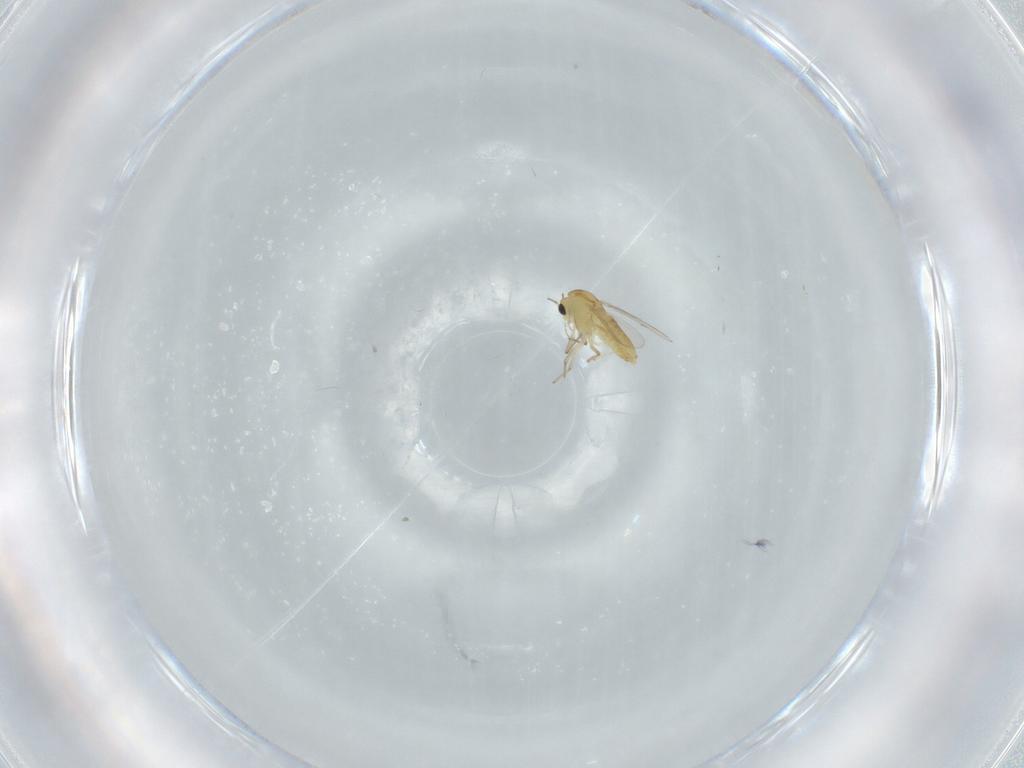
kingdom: Animalia
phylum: Arthropoda
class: Insecta
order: Diptera
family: Chironomidae
